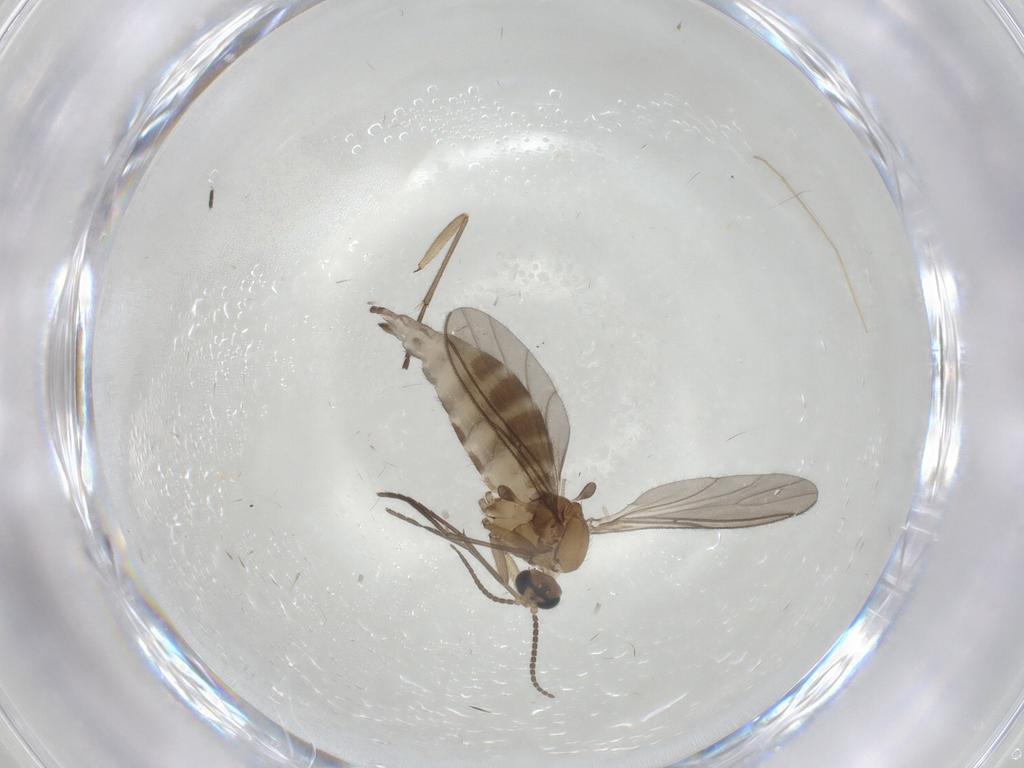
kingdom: Animalia
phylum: Arthropoda
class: Insecta
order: Diptera
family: Sciaridae
